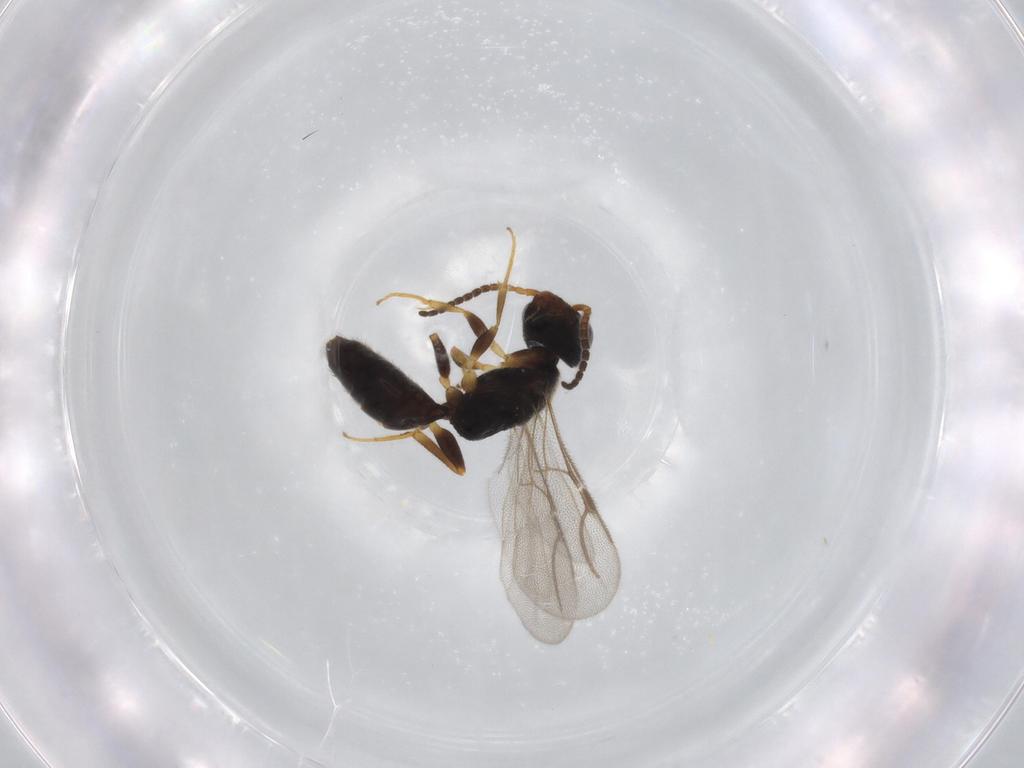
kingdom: Animalia
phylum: Arthropoda
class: Insecta
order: Hymenoptera
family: Bethylidae
